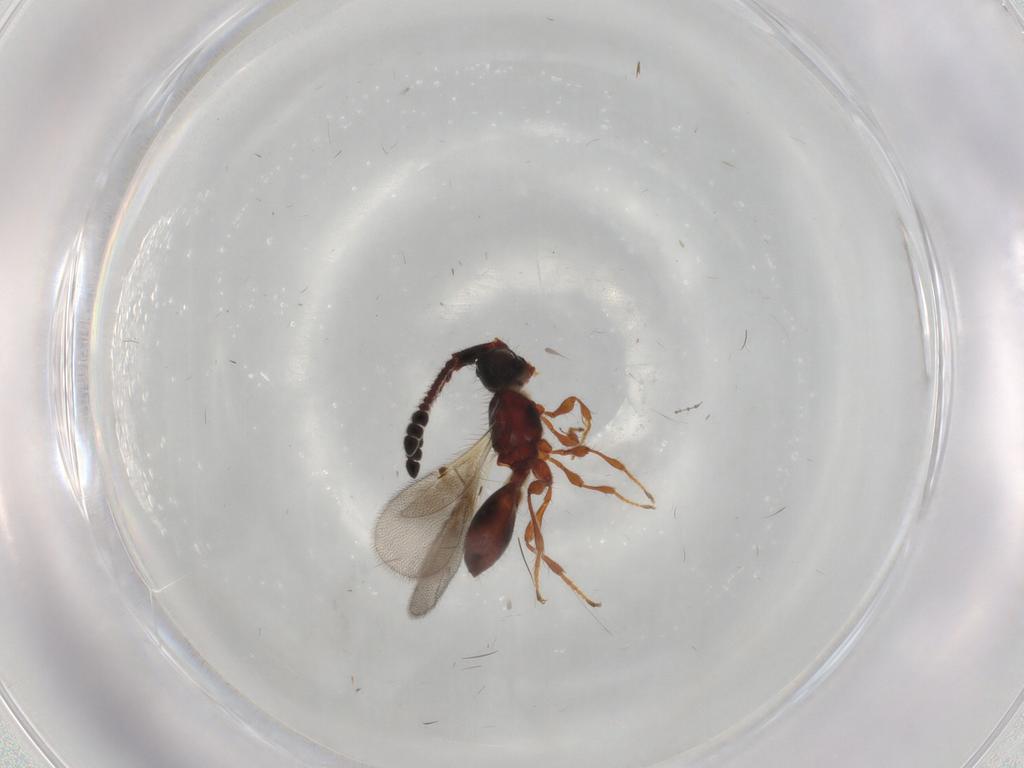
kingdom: Animalia
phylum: Arthropoda
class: Insecta
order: Hymenoptera
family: Diapriidae
